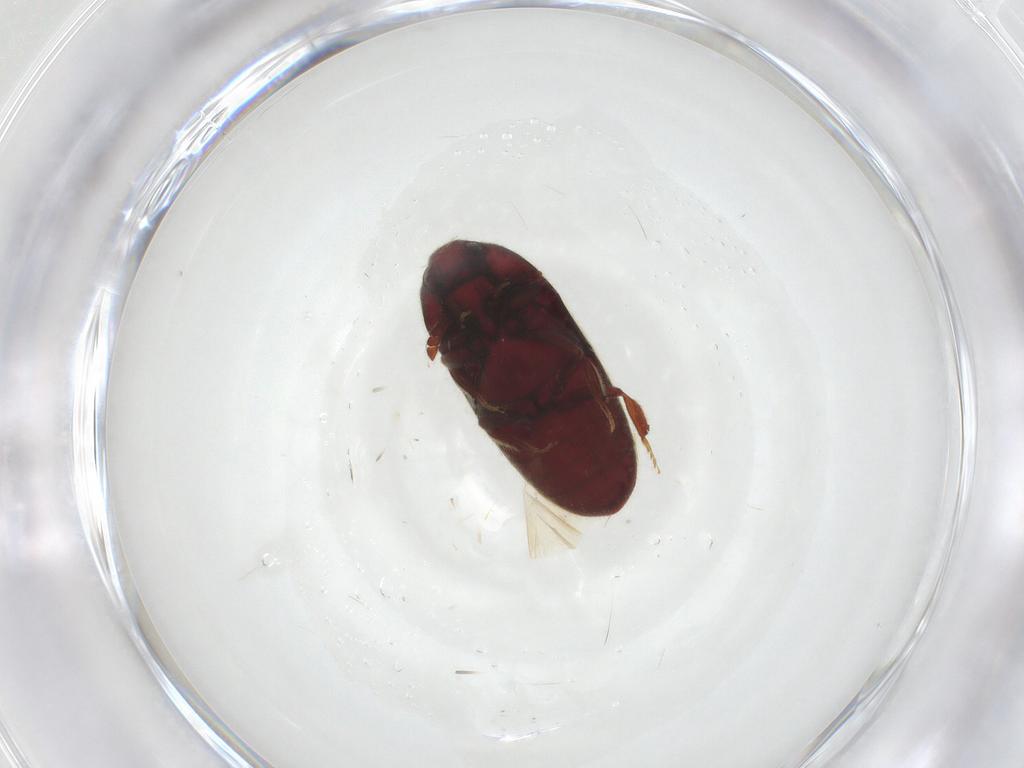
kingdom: Animalia
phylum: Arthropoda
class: Insecta
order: Coleoptera
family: Throscidae
